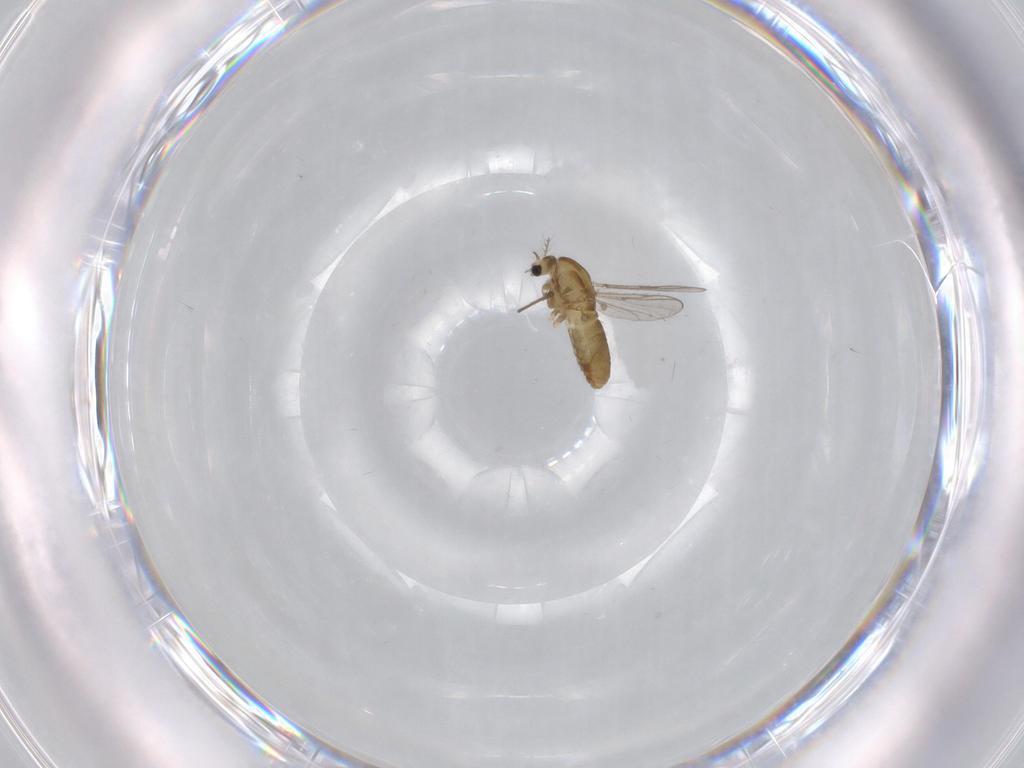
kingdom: Animalia
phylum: Arthropoda
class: Insecta
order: Diptera
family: Chironomidae
